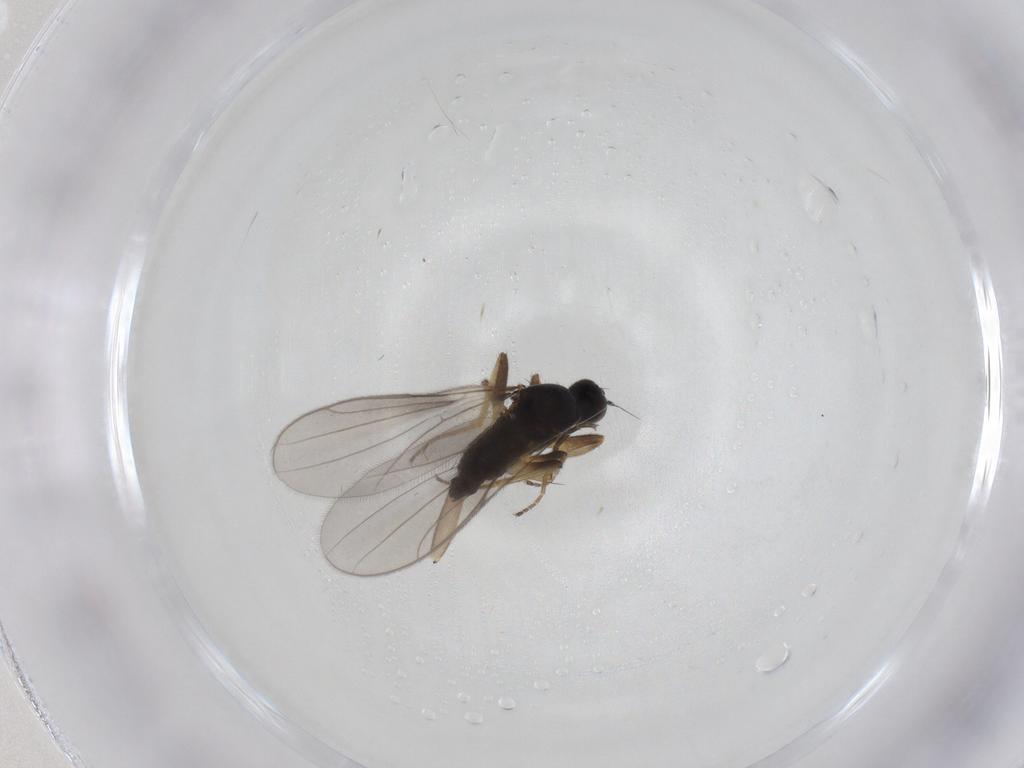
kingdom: Animalia
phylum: Arthropoda
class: Insecta
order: Diptera
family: Hybotidae
